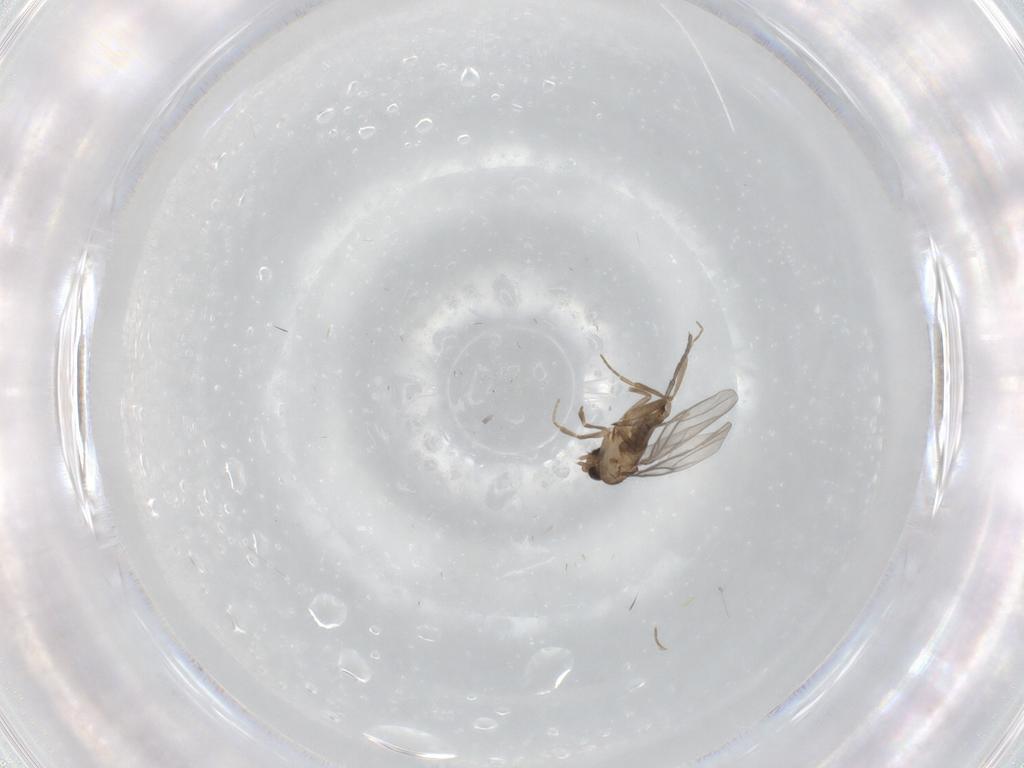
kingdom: Animalia
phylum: Arthropoda
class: Insecta
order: Diptera
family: Sciaridae
